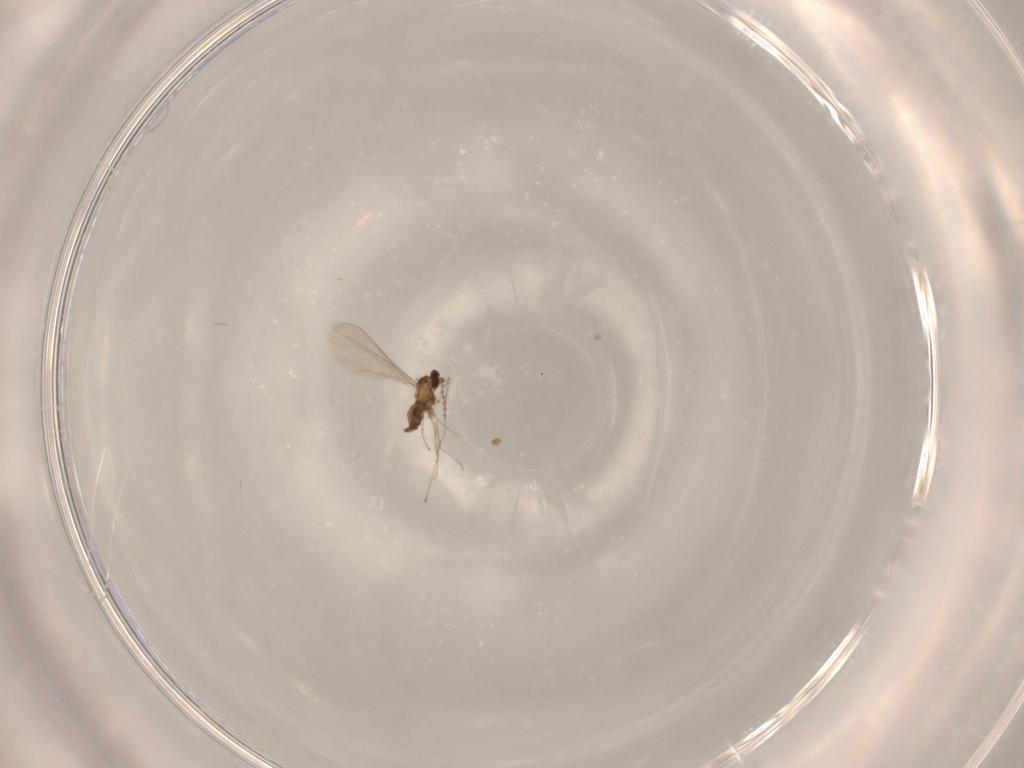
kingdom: Animalia
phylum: Arthropoda
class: Insecta
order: Diptera
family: Cecidomyiidae
